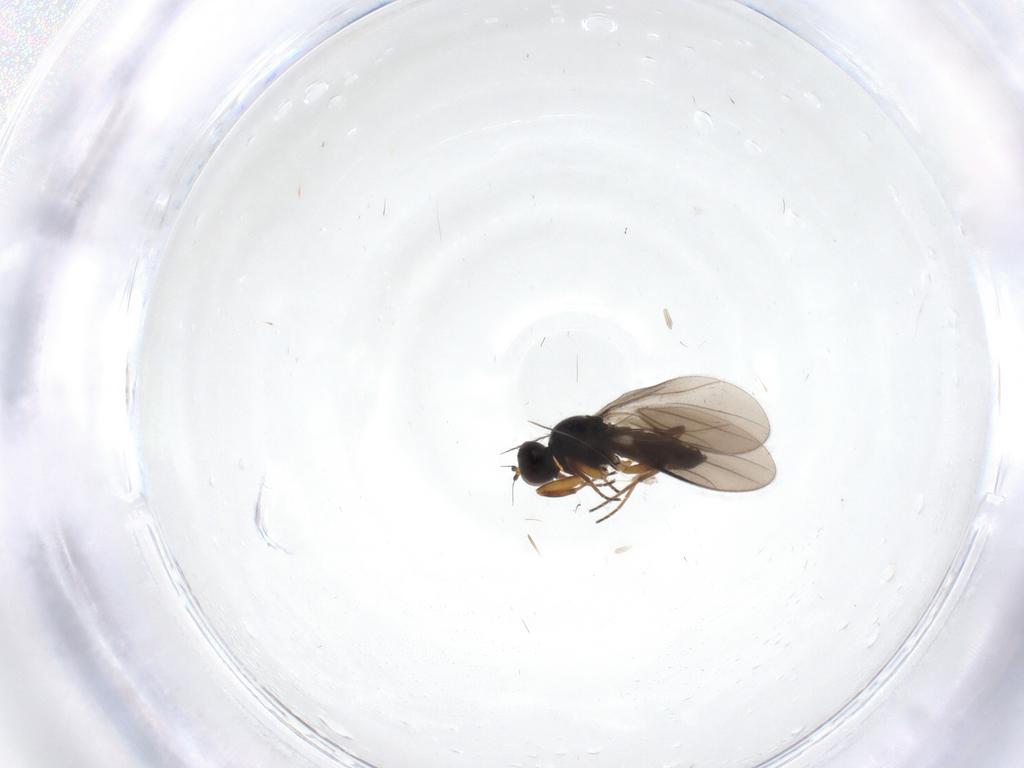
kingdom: Animalia
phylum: Arthropoda
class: Insecta
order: Diptera
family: Hybotidae
